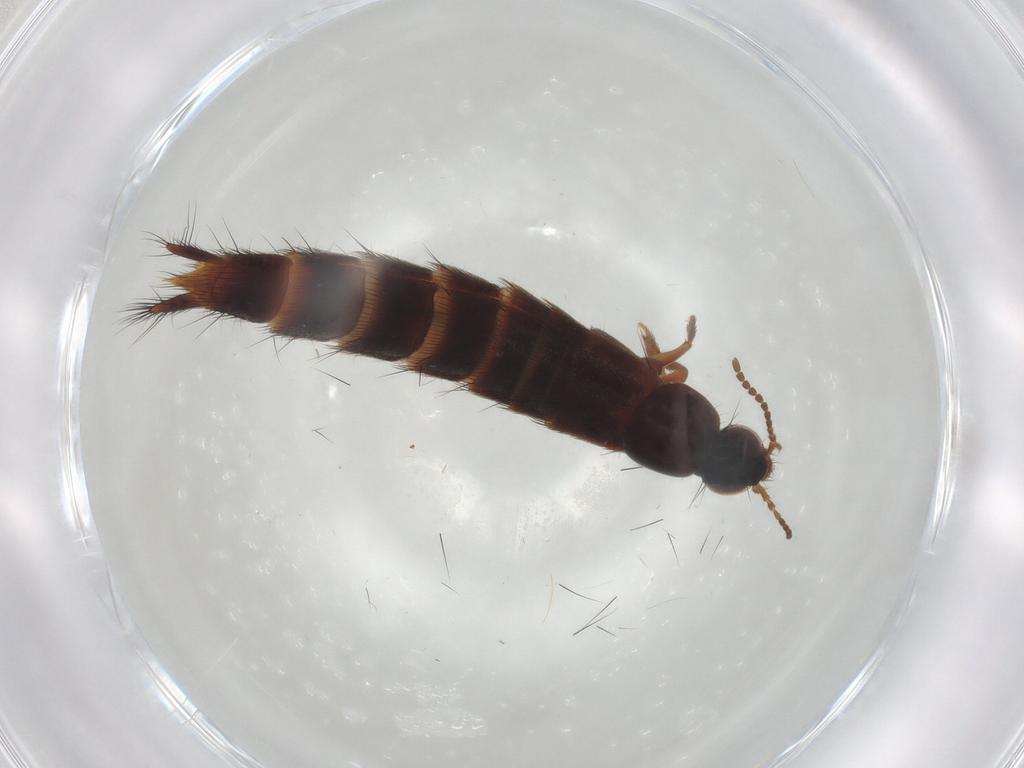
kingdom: Animalia
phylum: Arthropoda
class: Insecta
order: Coleoptera
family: Staphylinidae
